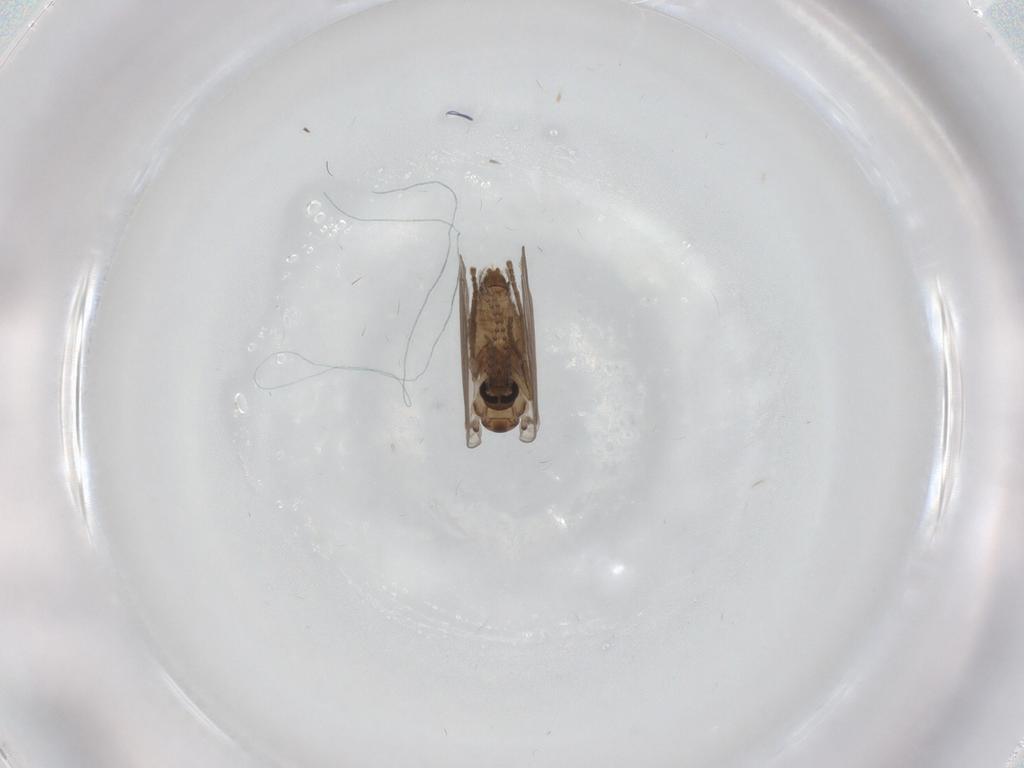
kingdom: Animalia
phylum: Arthropoda
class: Insecta
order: Diptera
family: Psychodidae
